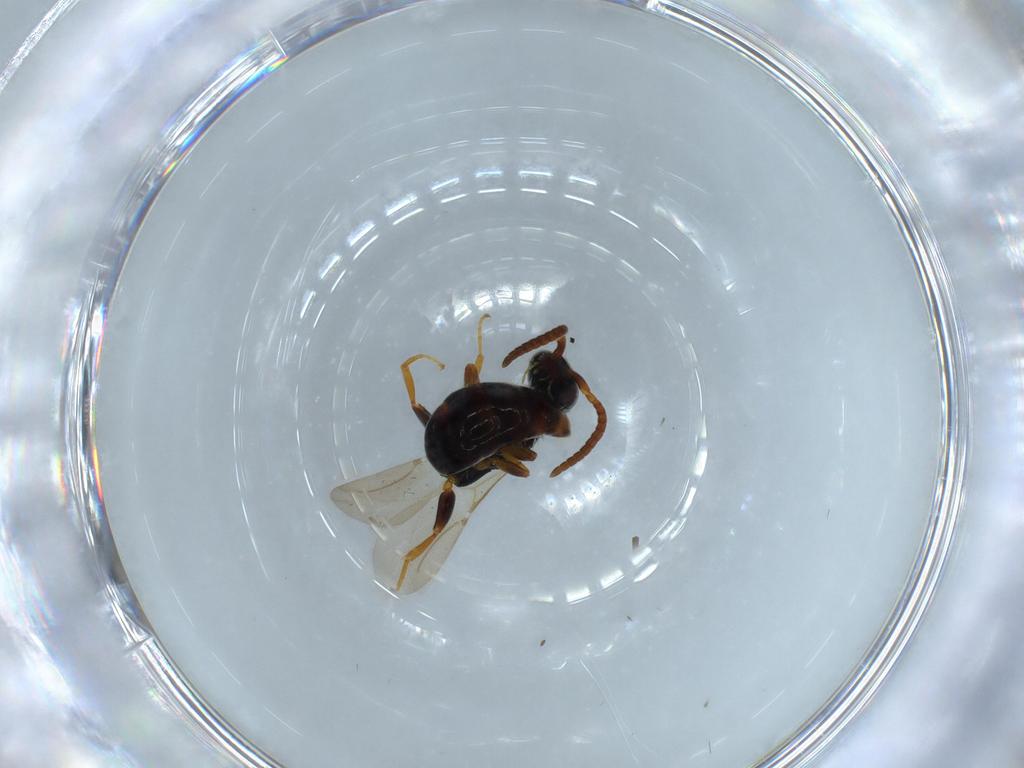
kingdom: Animalia
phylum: Arthropoda
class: Insecta
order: Hymenoptera
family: Bethylidae
